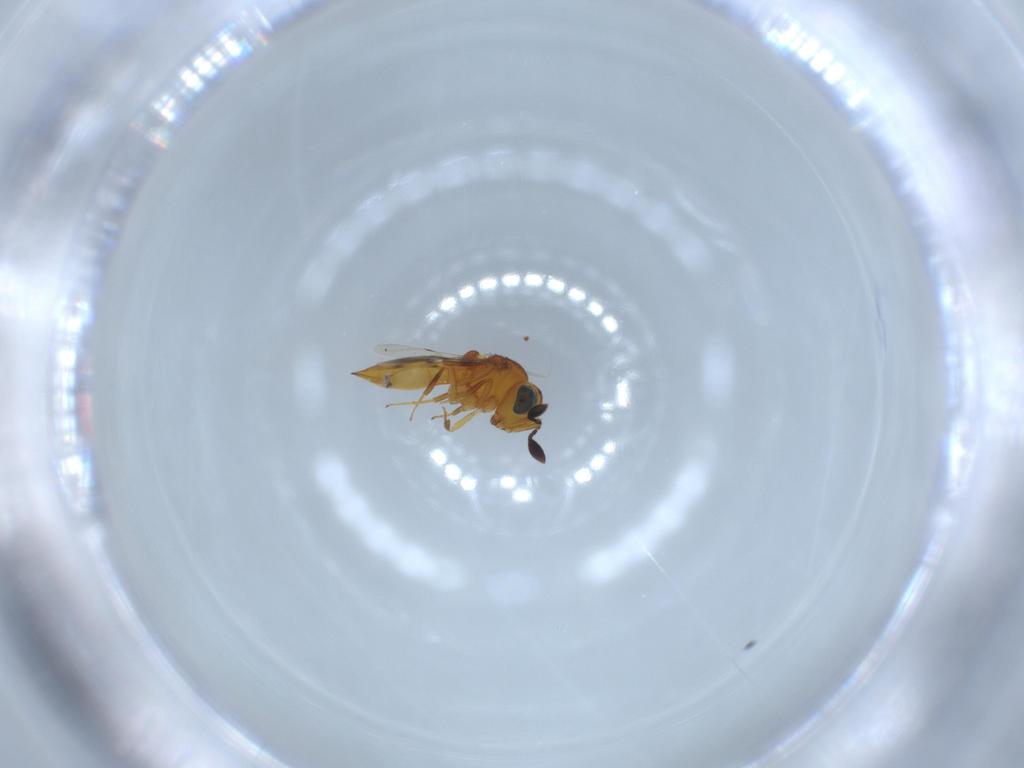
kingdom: Animalia
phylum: Arthropoda
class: Insecta
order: Hymenoptera
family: Scelionidae
